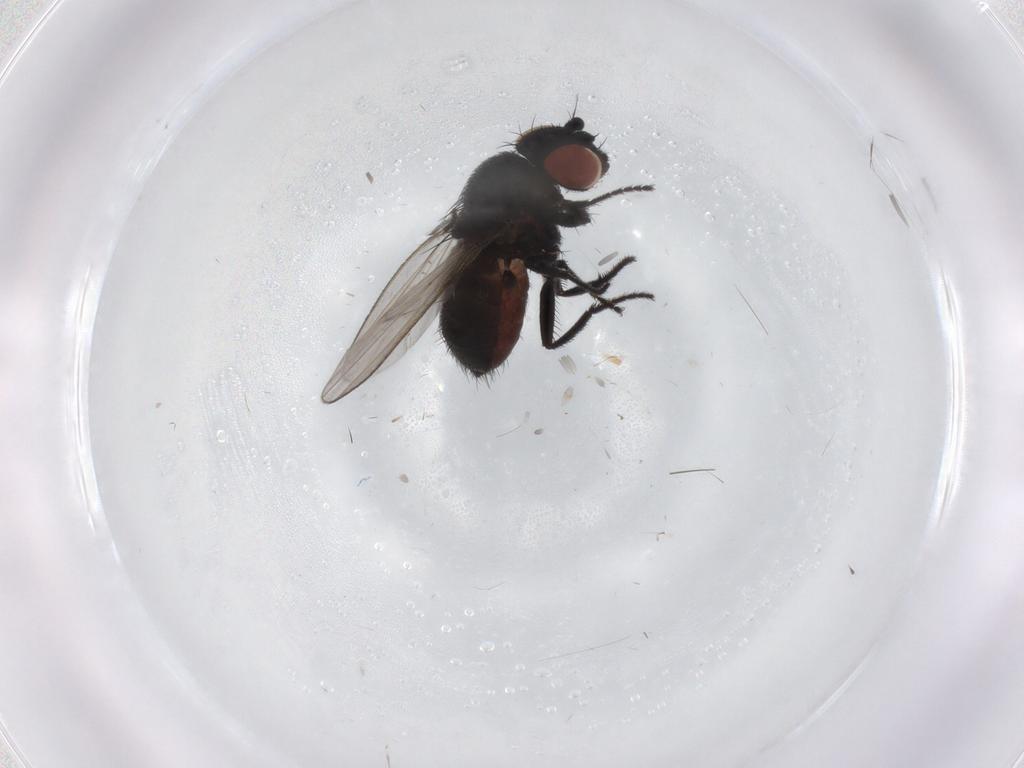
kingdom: Animalia
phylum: Arthropoda
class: Insecta
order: Diptera
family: Milichiidae
